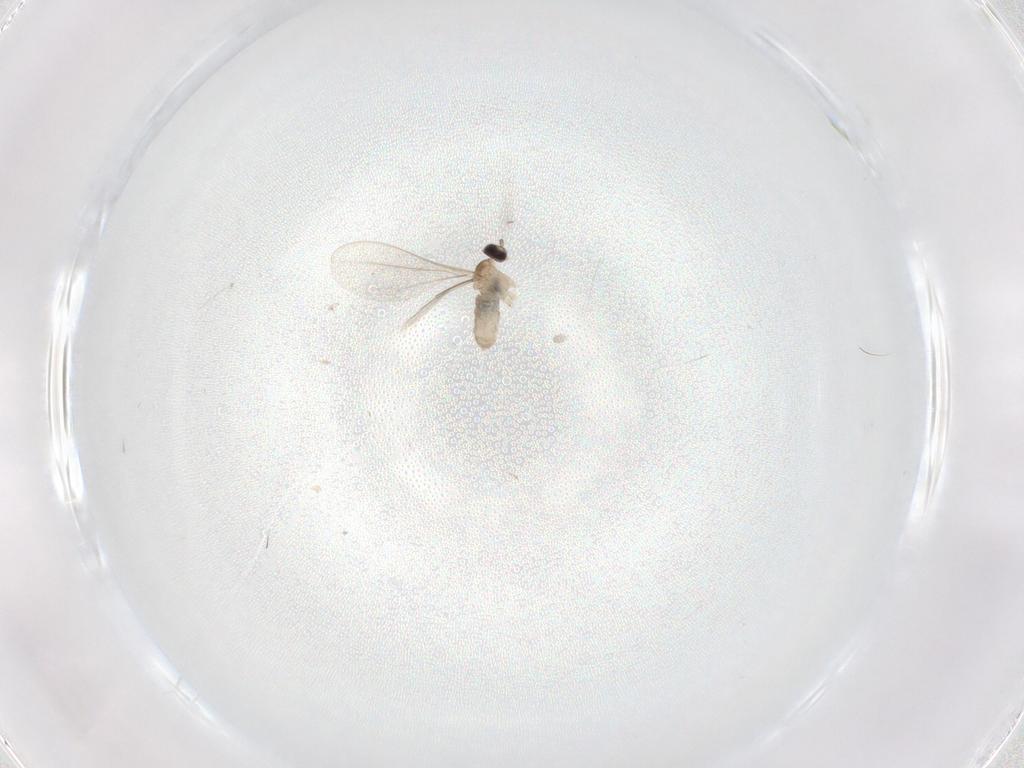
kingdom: Animalia
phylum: Arthropoda
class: Insecta
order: Diptera
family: Cecidomyiidae
